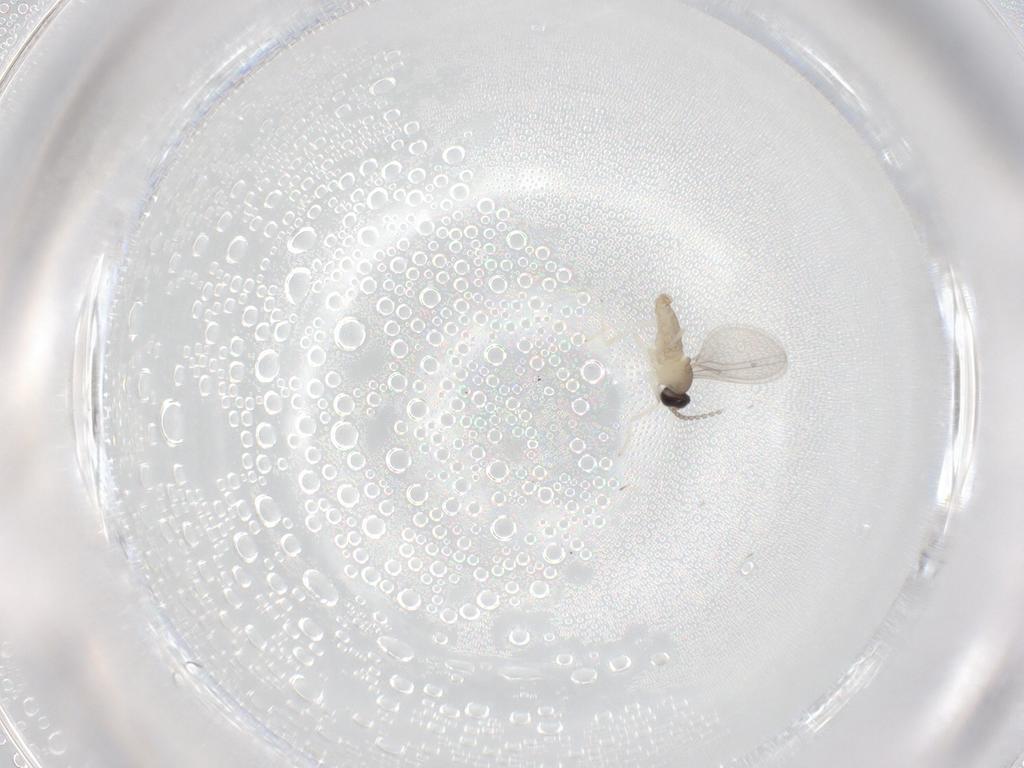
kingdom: Animalia
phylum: Arthropoda
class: Insecta
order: Diptera
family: Cecidomyiidae
